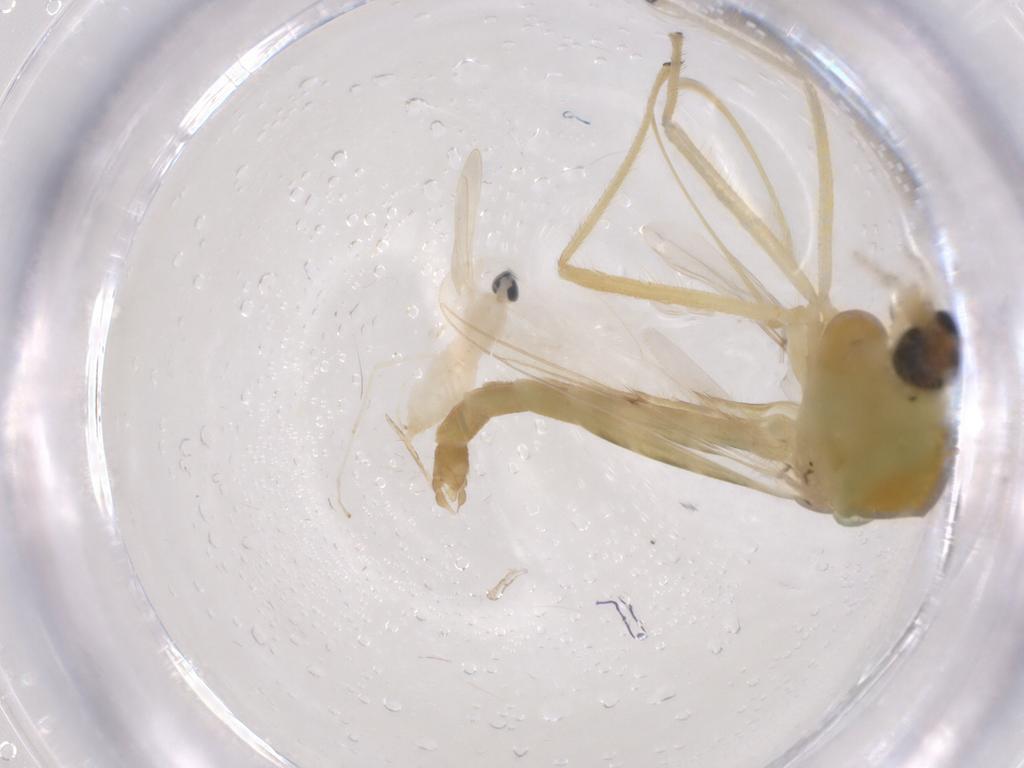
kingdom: Animalia
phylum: Arthropoda
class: Insecta
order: Diptera
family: Chironomidae
